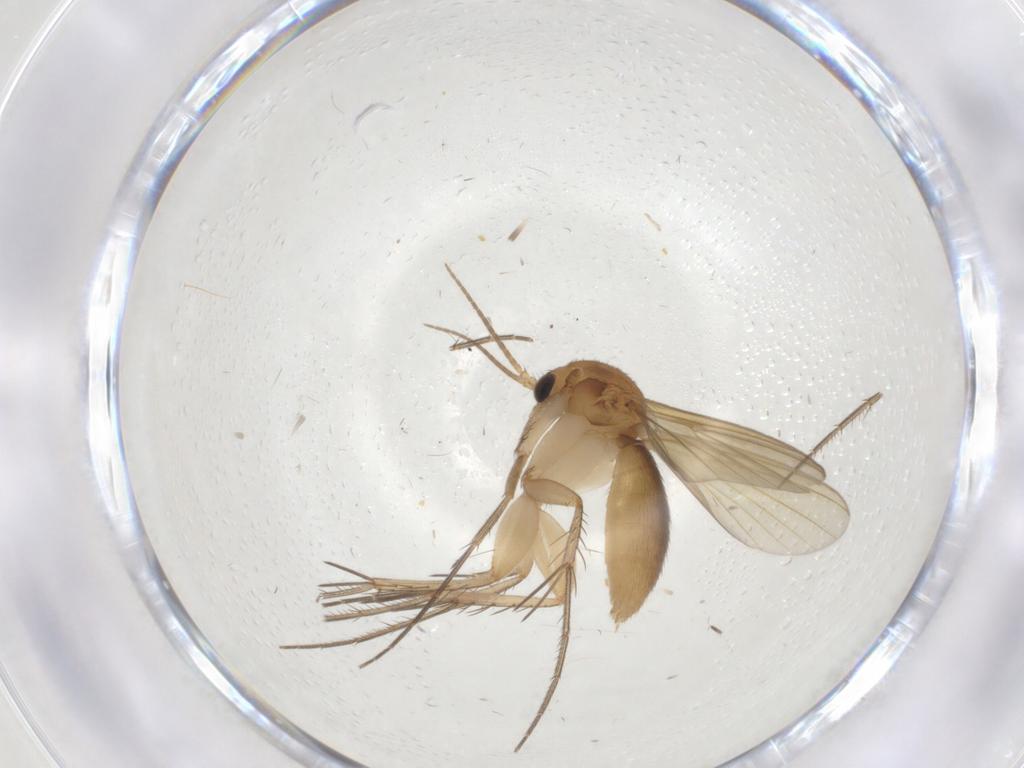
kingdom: Animalia
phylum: Arthropoda
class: Insecta
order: Diptera
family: Mycetophilidae
